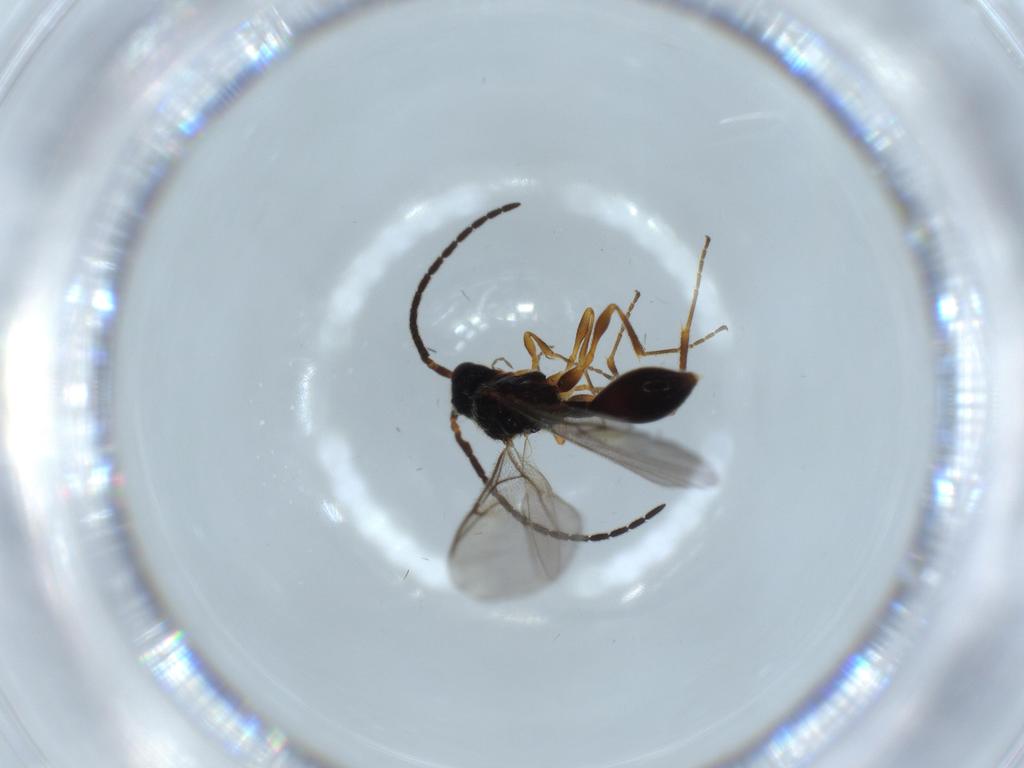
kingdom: Animalia
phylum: Arthropoda
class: Insecta
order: Hymenoptera
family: Diapriidae
